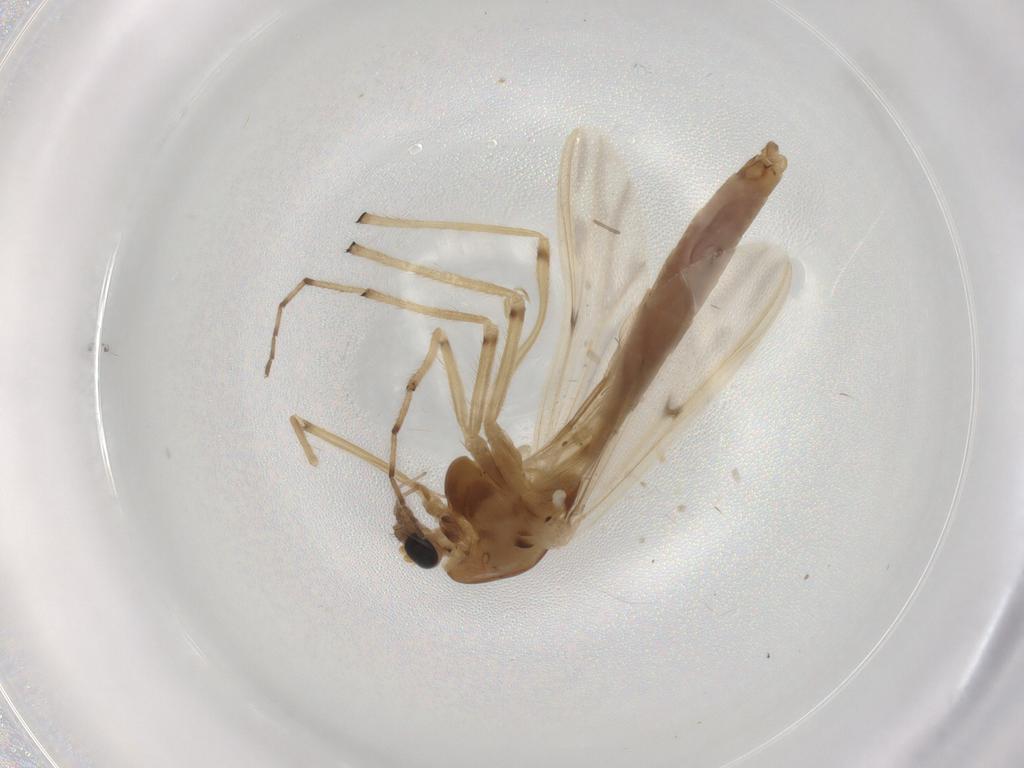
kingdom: Animalia
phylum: Arthropoda
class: Insecta
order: Diptera
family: Chironomidae
